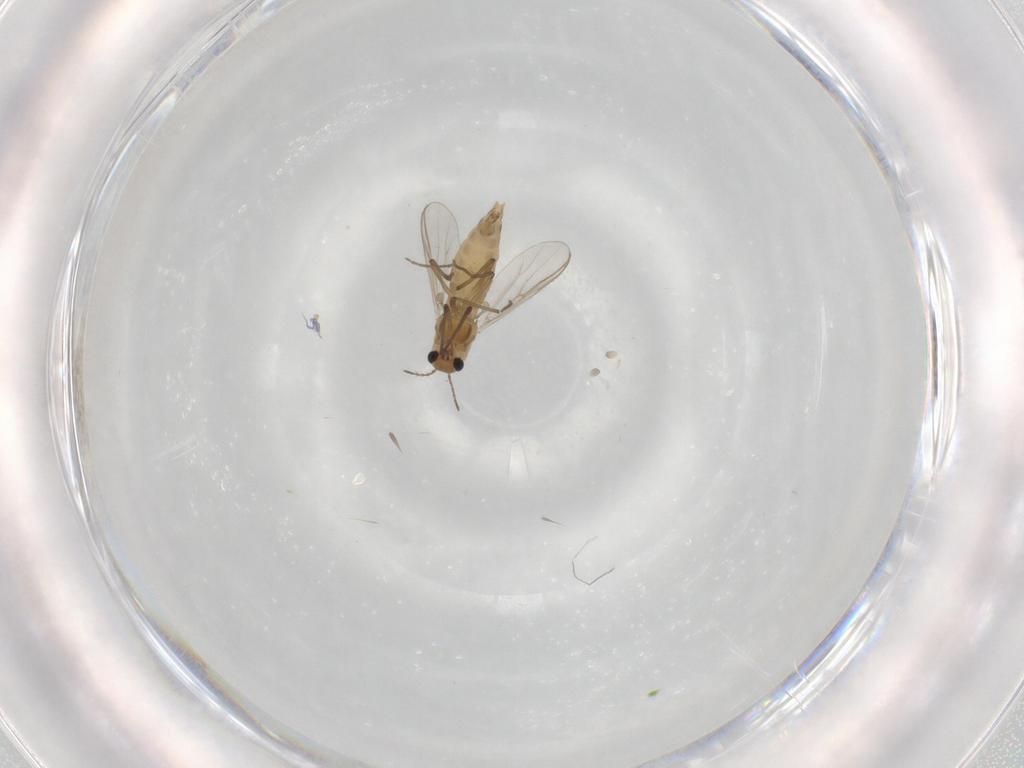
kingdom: Animalia
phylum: Arthropoda
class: Insecta
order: Diptera
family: Chironomidae
